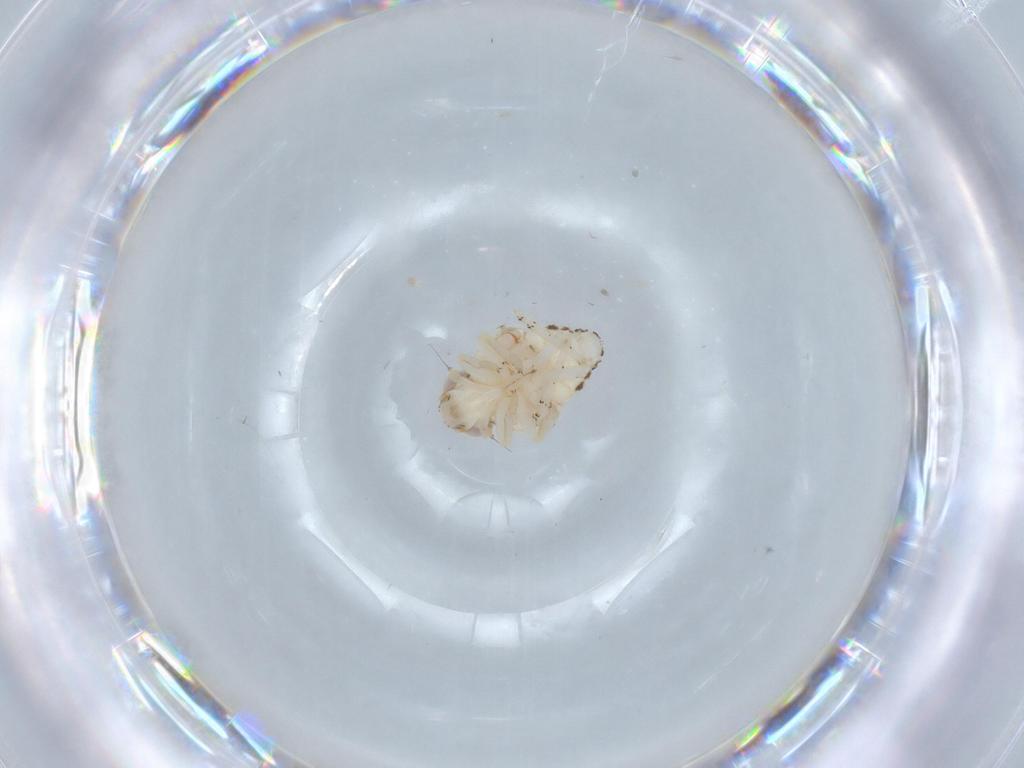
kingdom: Animalia
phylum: Arthropoda
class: Insecta
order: Hemiptera
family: Nogodinidae
